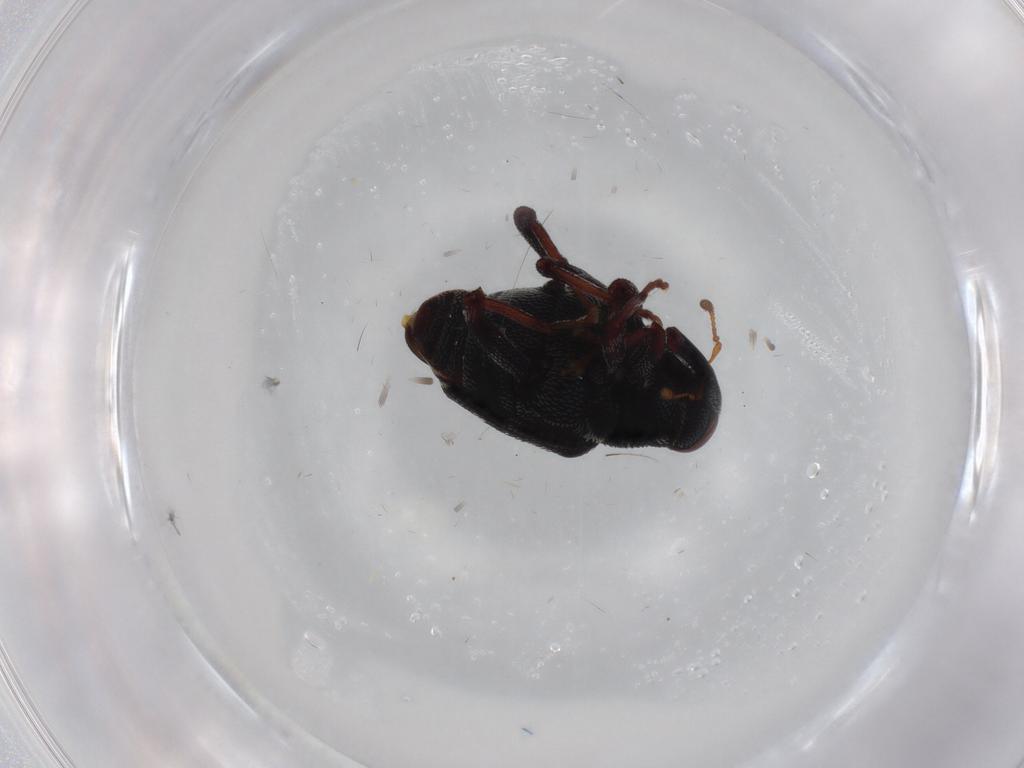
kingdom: Animalia
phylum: Arthropoda
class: Insecta
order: Coleoptera
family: Curculionidae
